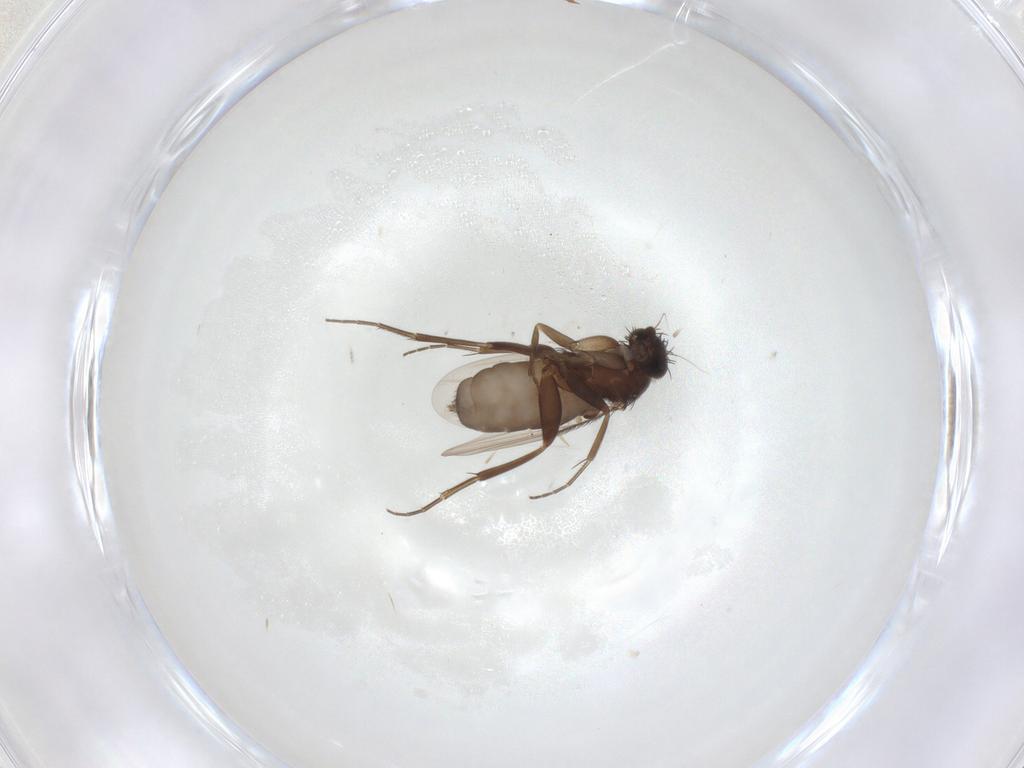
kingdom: Animalia
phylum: Arthropoda
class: Insecta
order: Diptera
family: Phoridae
